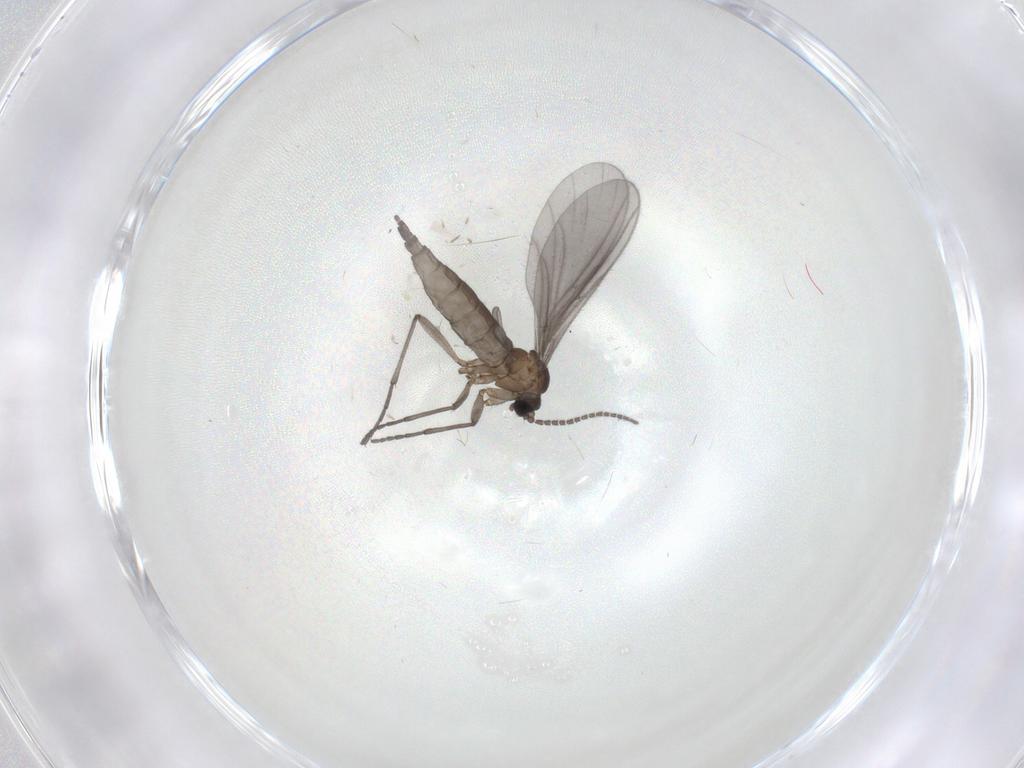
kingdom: Animalia
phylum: Arthropoda
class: Insecta
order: Diptera
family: Sciaridae
